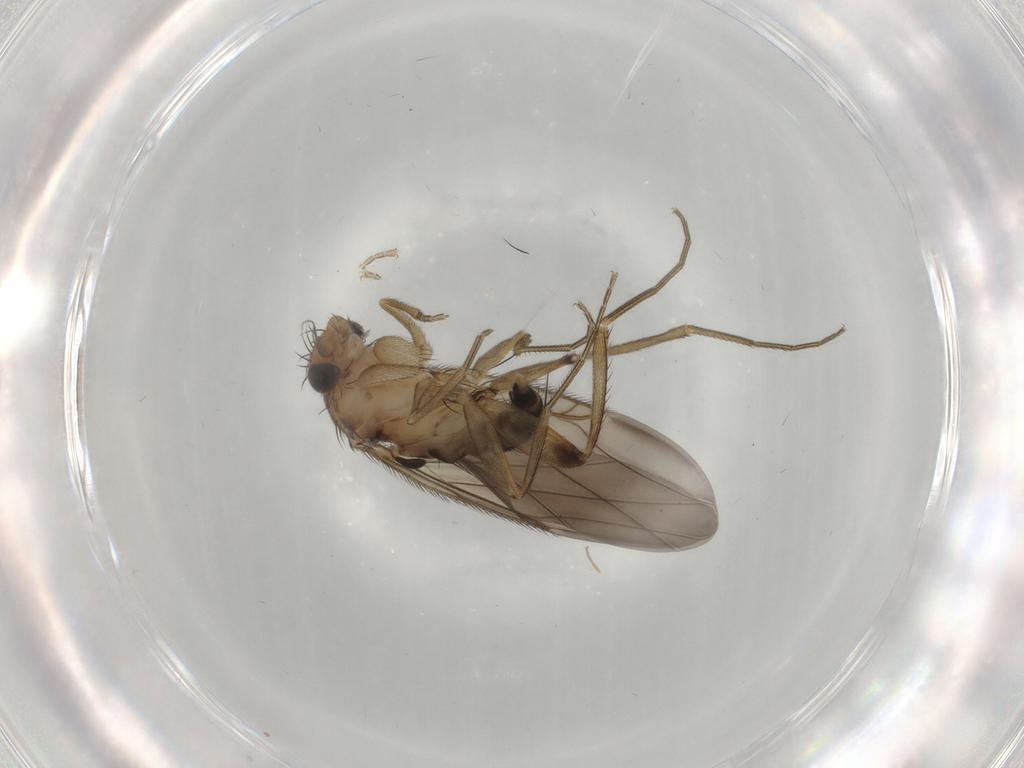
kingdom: Animalia
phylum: Arthropoda
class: Insecta
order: Diptera
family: Phoridae
